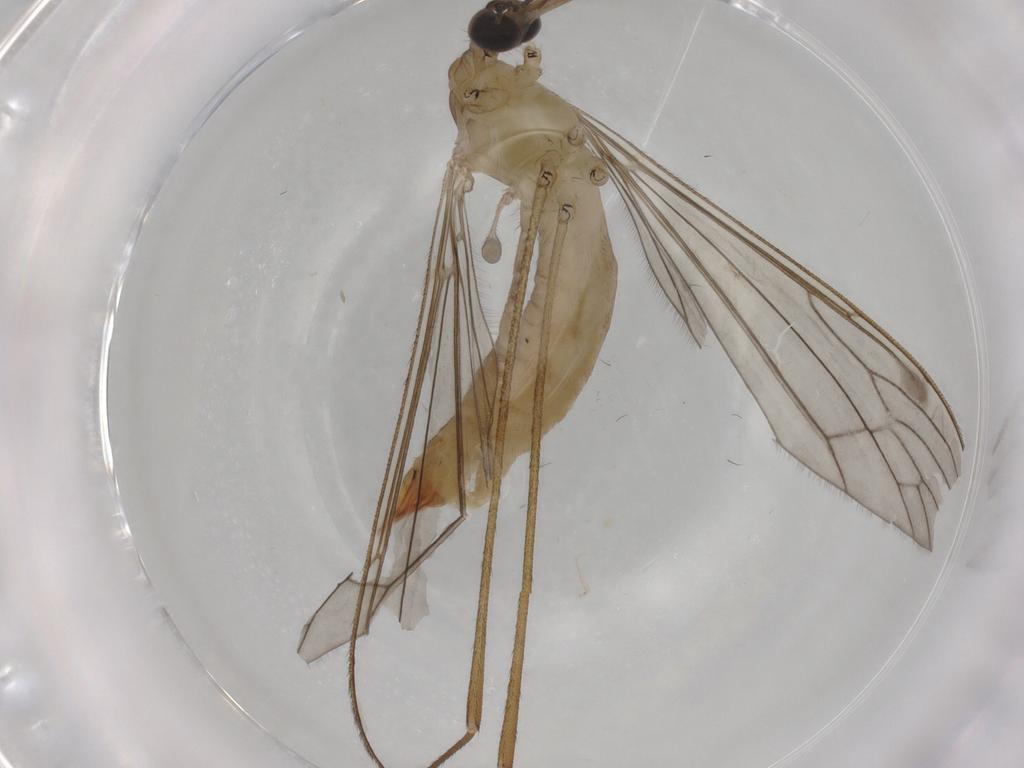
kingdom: Animalia
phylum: Arthropoda
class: Insecta
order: Diptera
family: Cecidomyiidae
